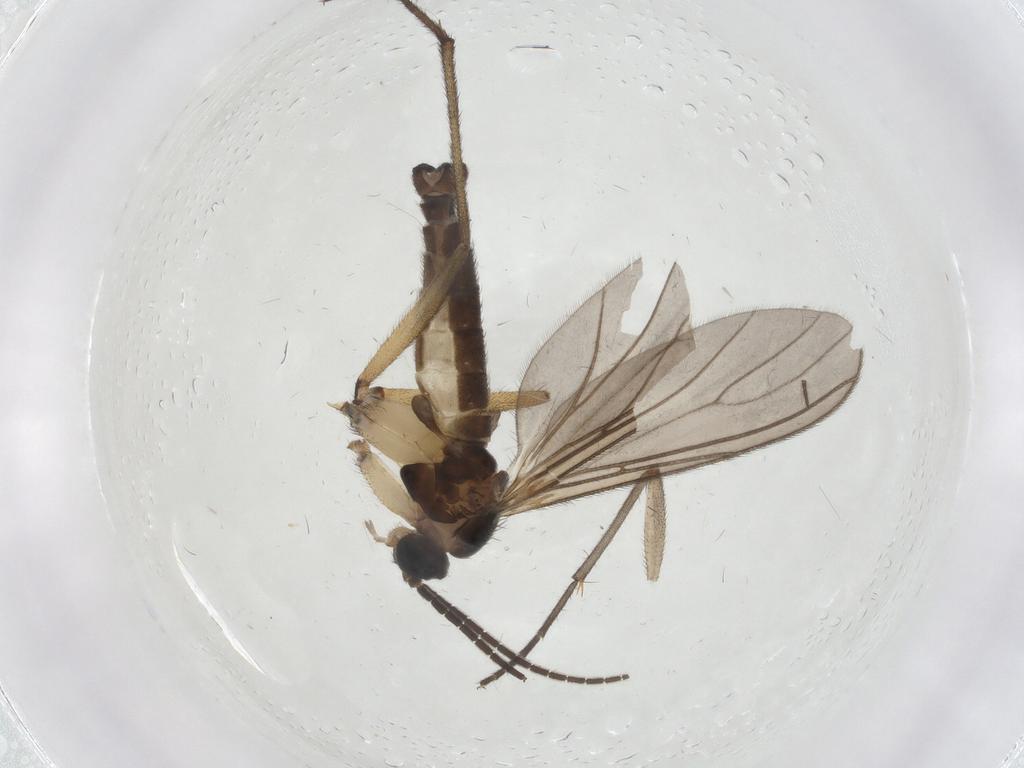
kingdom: Animalia
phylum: Arthropoda
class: Insecta
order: Diptera
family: Sciaridae
